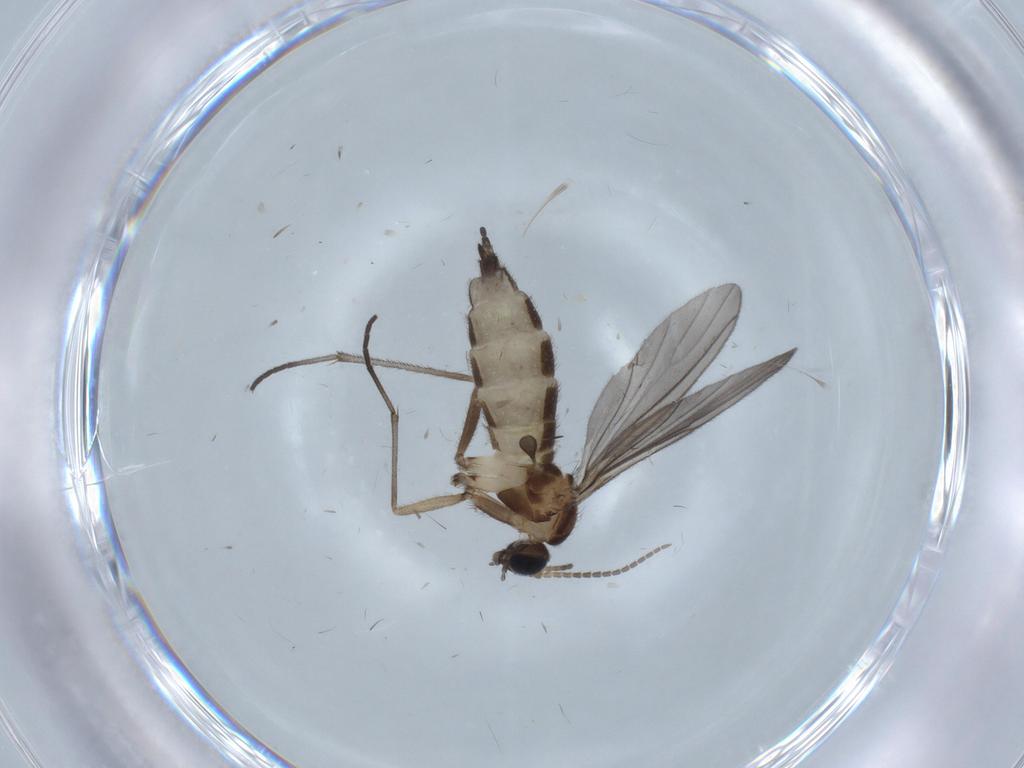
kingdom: Animalia
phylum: Arthropoda
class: Insecta
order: Diptera
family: Sciaridae
